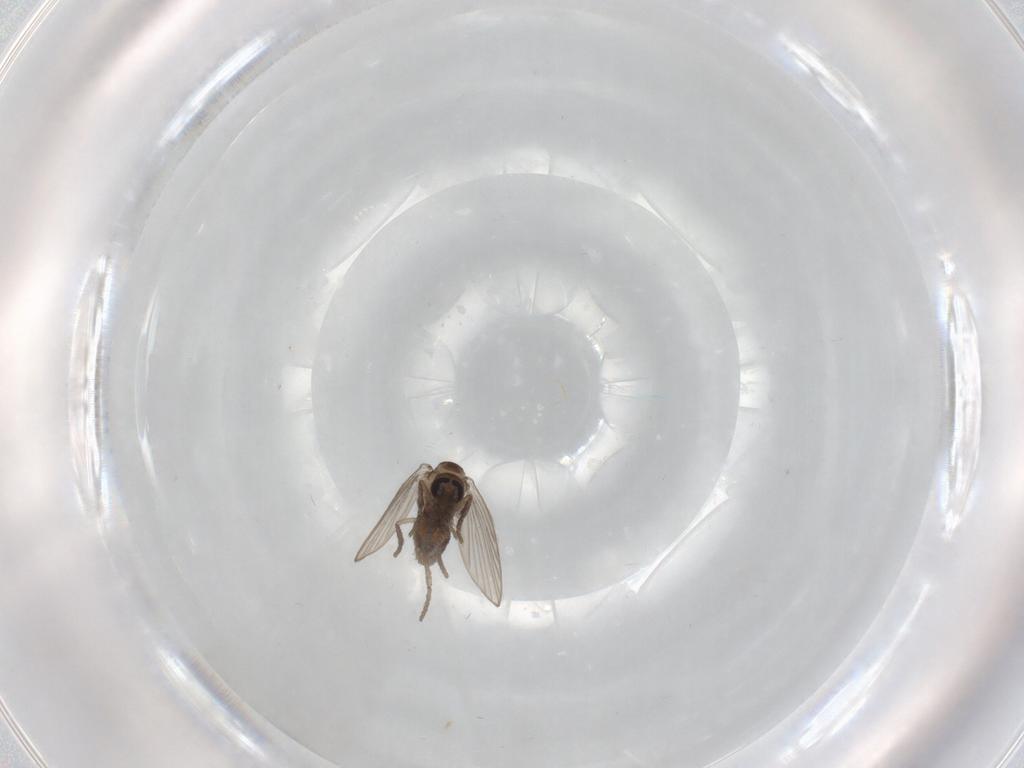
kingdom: Animalia
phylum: Arthropoda
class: Insecta
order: Diptera
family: Psychodidae
